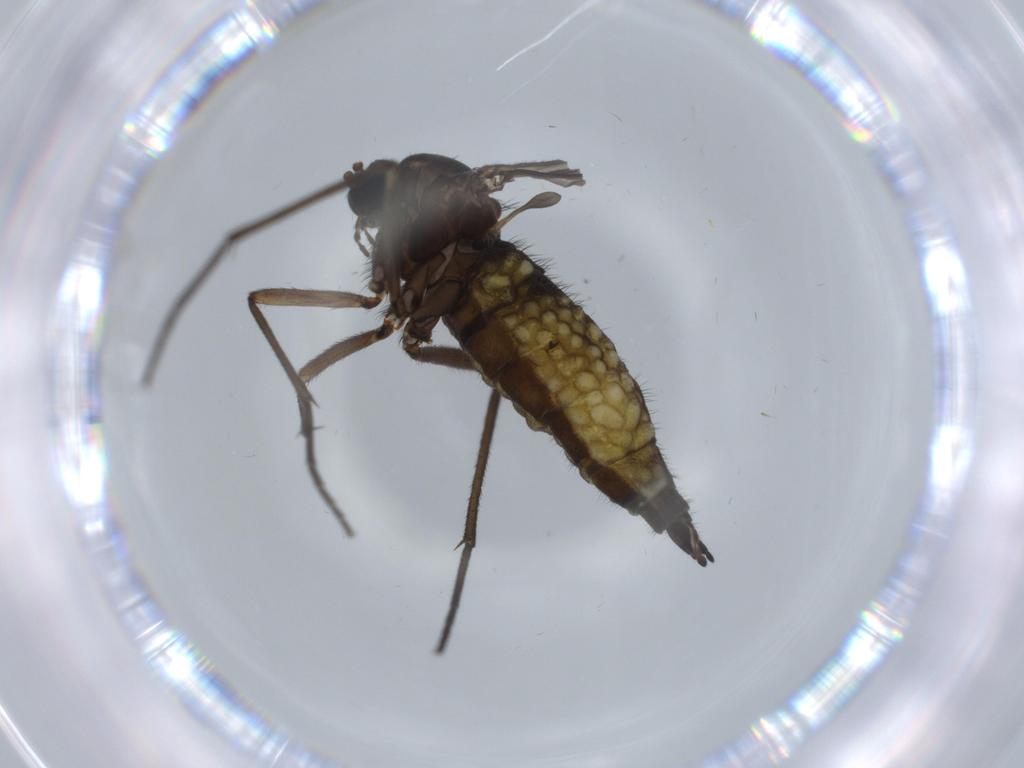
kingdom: Animalia
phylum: Arthropoda
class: Insecta
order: Diptera
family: Sciaridae
